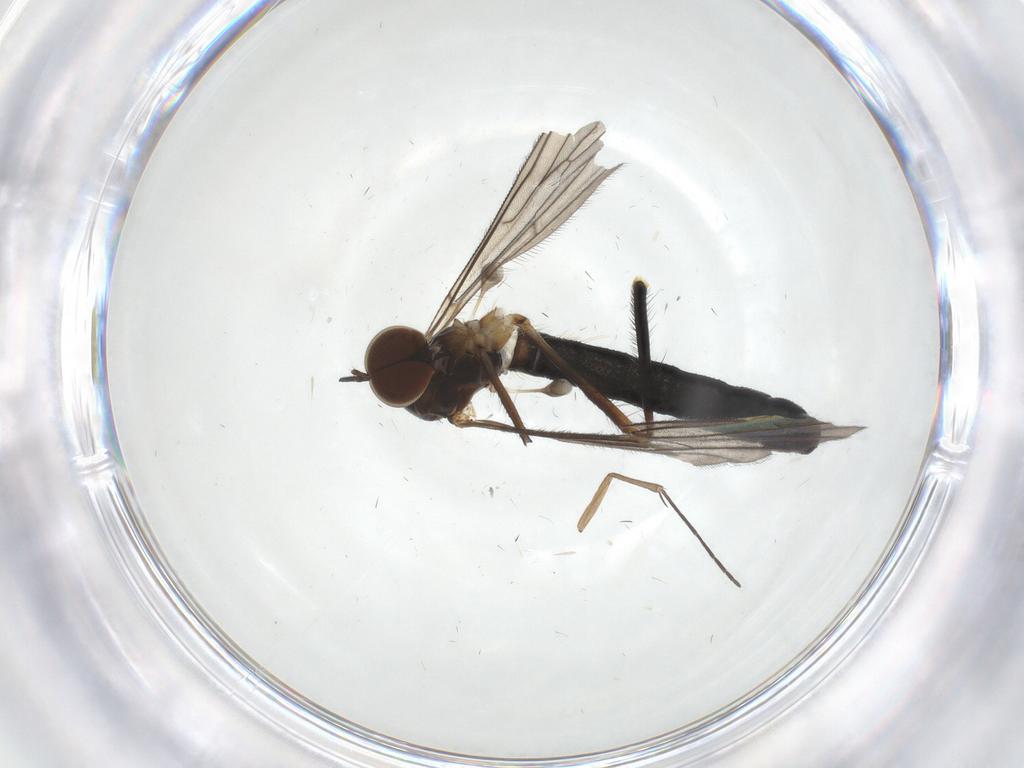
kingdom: Animalia
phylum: Arthropoda
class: Insecta
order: Diptera
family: Hybotidae
